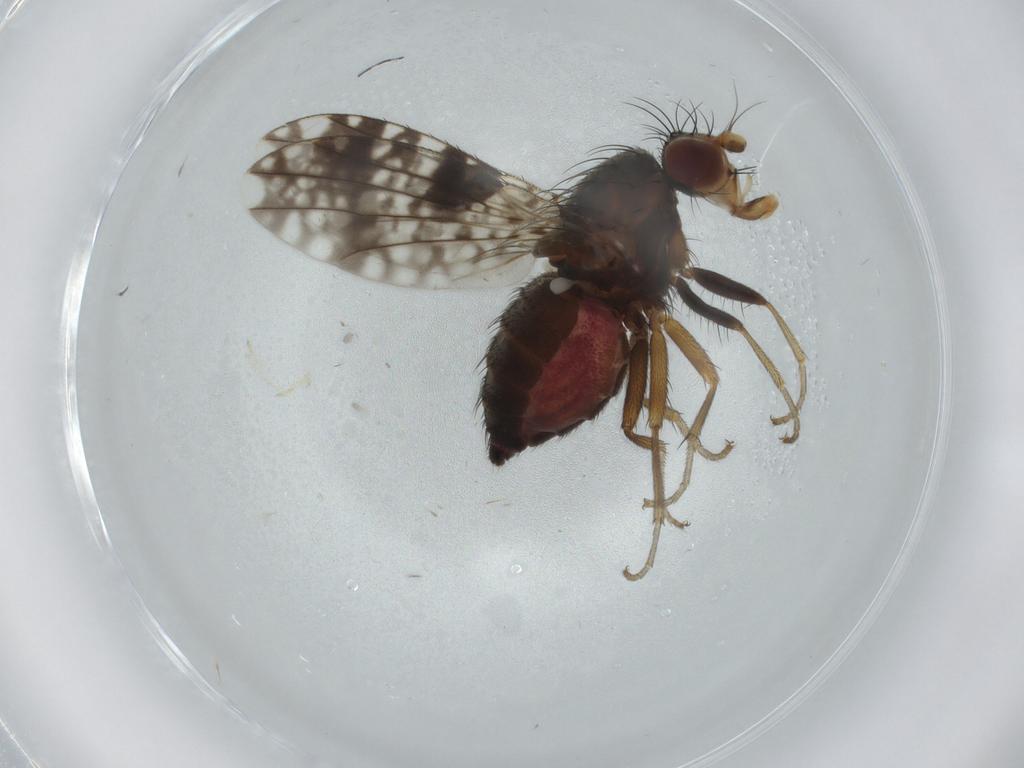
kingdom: Animalia
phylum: Arthropoda
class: Insecta
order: Diptera
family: Tephritidae
